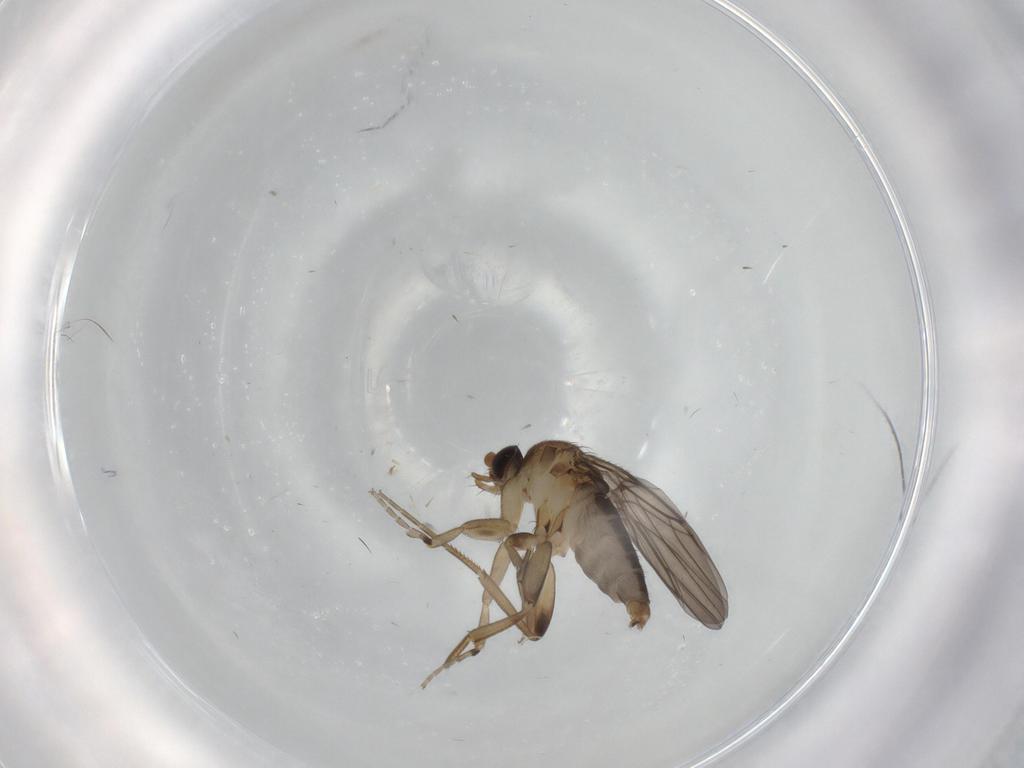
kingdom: Animalia
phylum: Arthropoda
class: Insecta
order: Diptera
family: Phoridae
